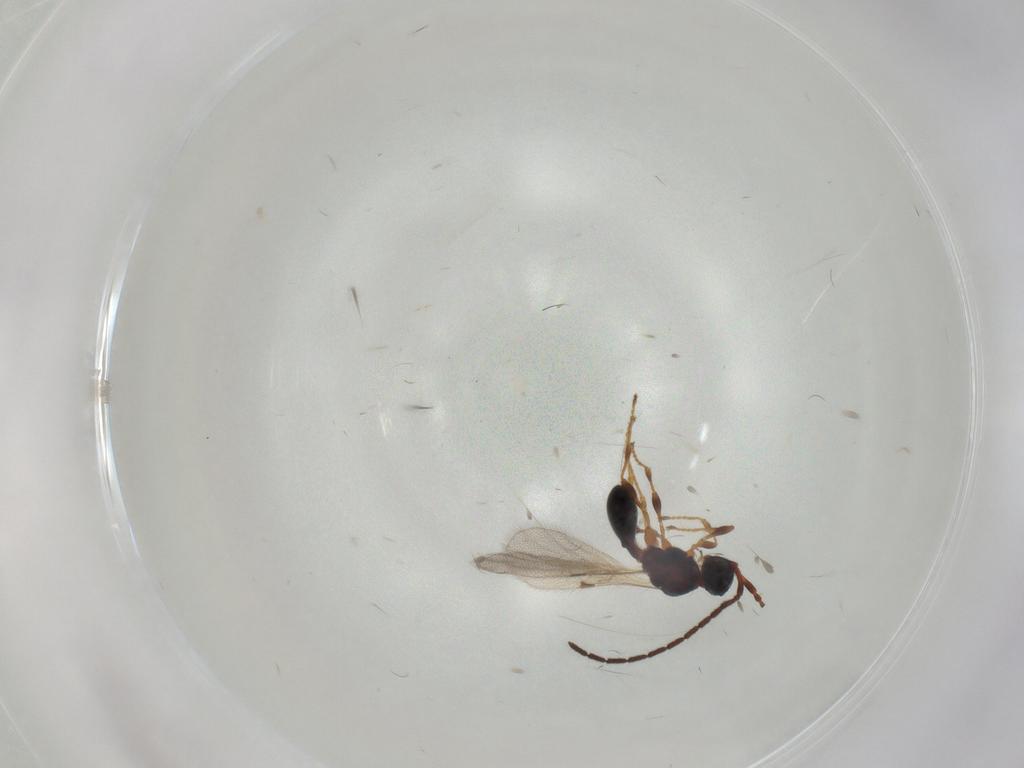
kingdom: Animalia
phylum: Arthropoda
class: Insecta
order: Hymenoptera
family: Diapriidae
